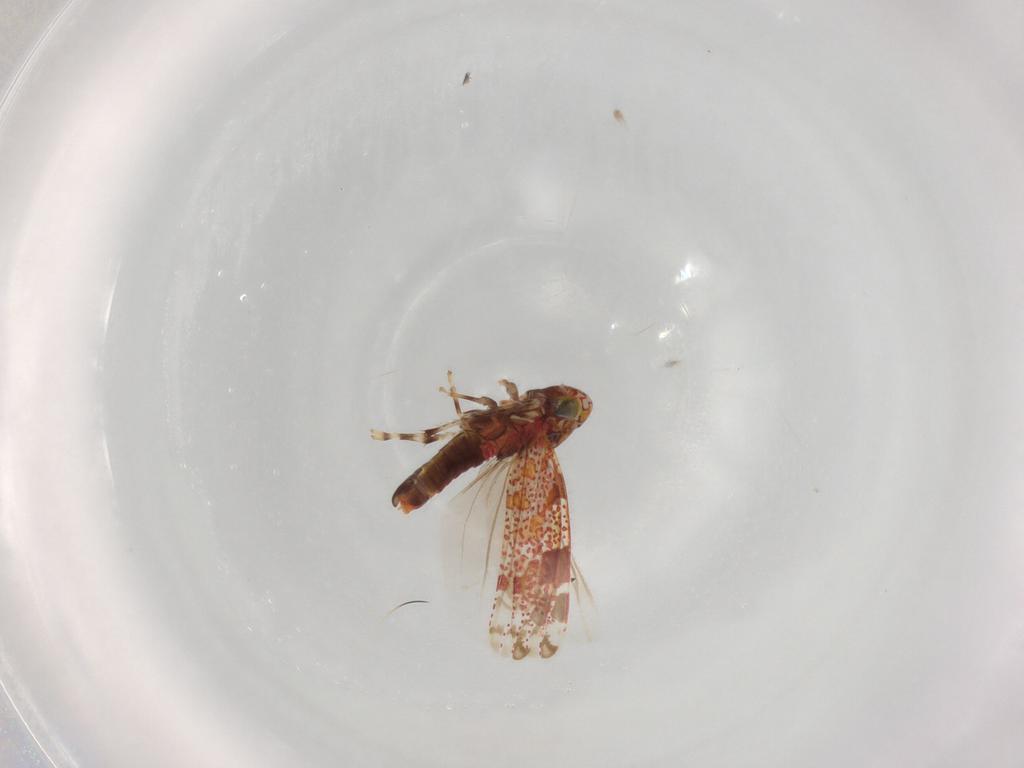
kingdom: Animalia
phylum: Arthropoda
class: Insecta
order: Hemiptera
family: Cicadellidae
